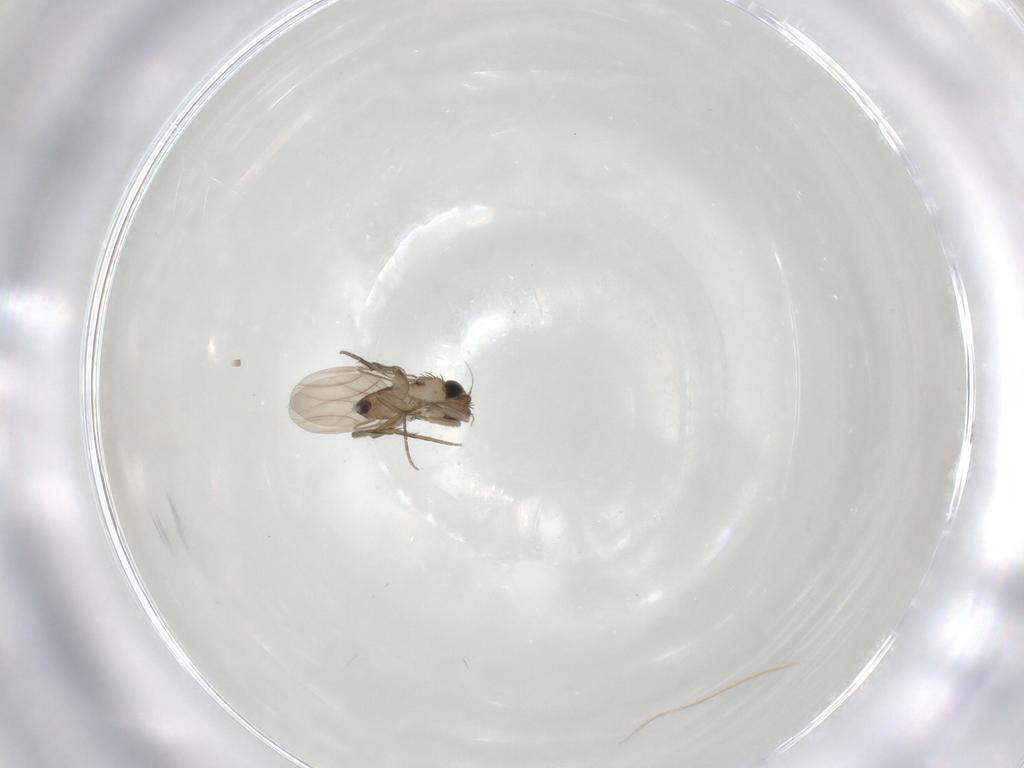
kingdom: Animalia
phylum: Arthropoda
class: Insecta
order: Diptera
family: Phoridae
